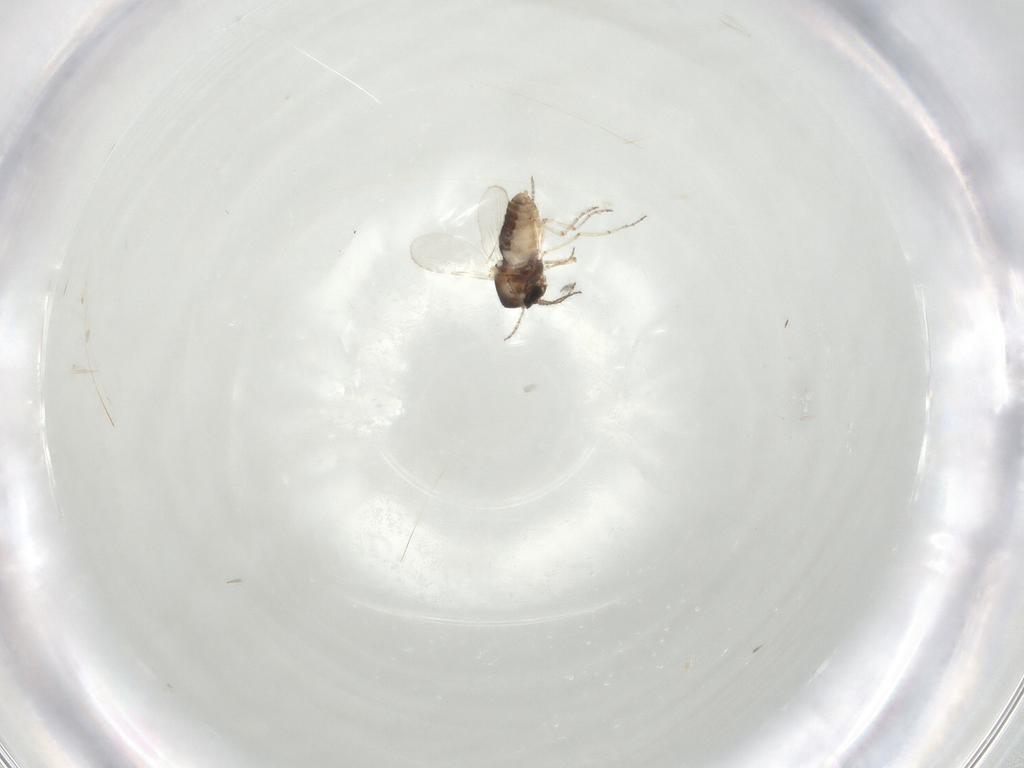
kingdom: Animalia
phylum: Arthropoda
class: Insecta
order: Diptera
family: Ceratopogonidae
